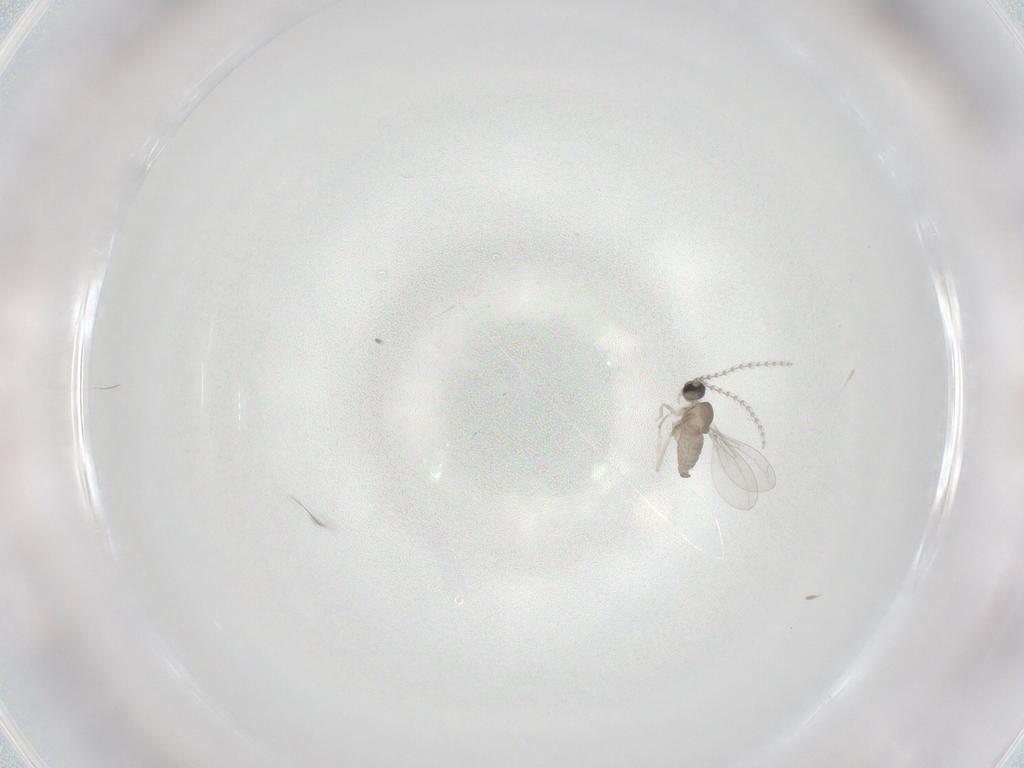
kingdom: Animalia
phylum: Arthropoda
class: Insecta
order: Diptera
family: Cecidomyiidae
